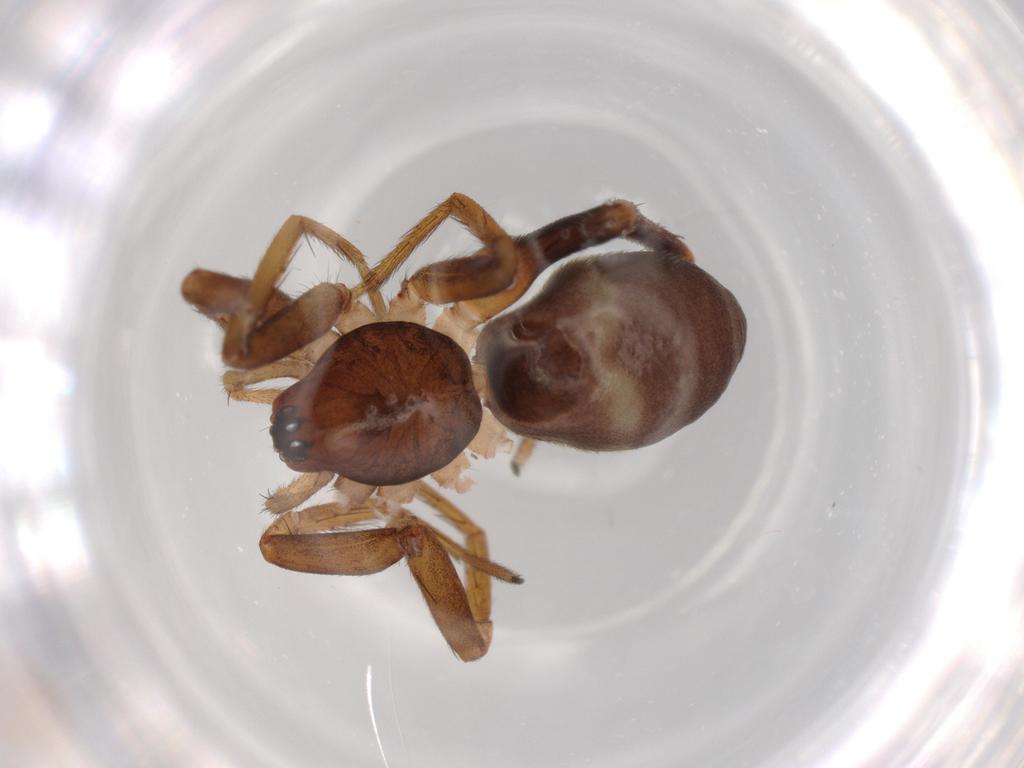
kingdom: Animalia
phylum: Arthropoda
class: Arachnida
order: Araneae
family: Corinnidae
